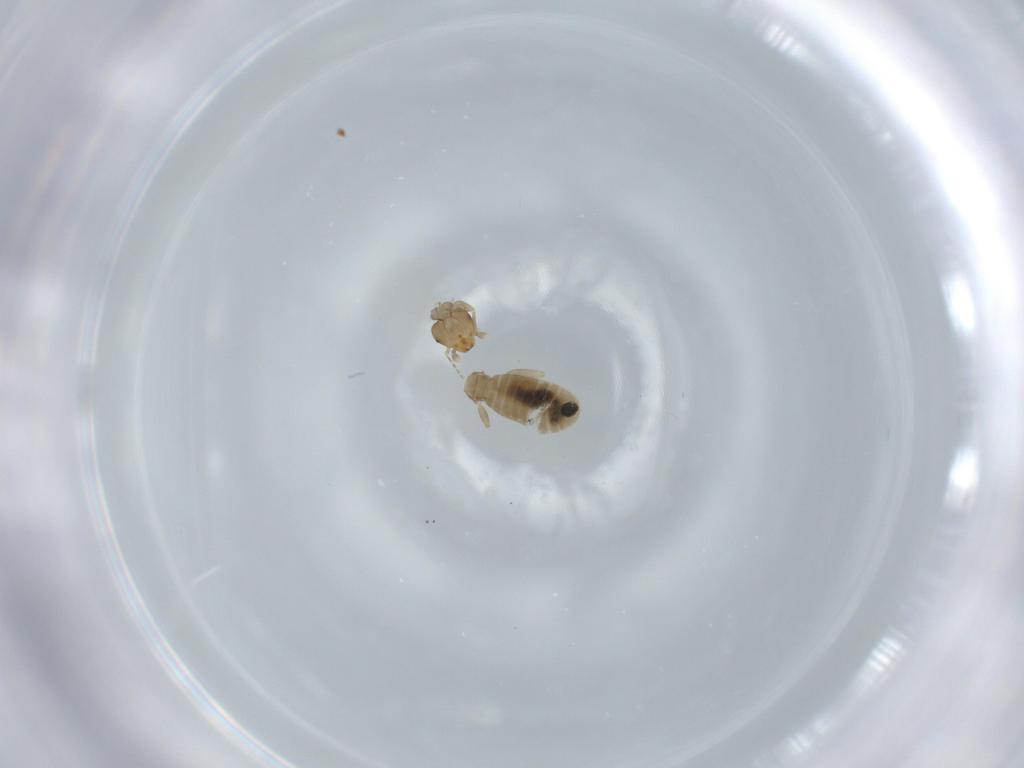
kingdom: Animalia
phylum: Arthropoda
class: Insecta
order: Psocodea
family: Liposcelididae
